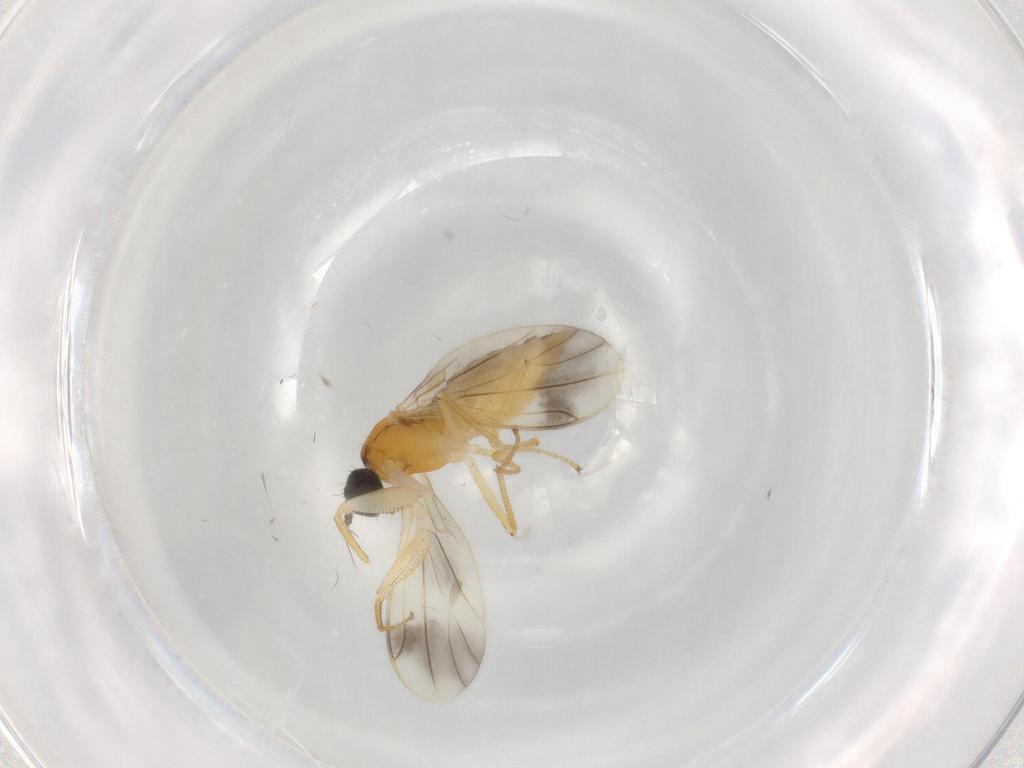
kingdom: Animalia
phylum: Arthropoda
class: Insecta
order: Diptera
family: Empididae
